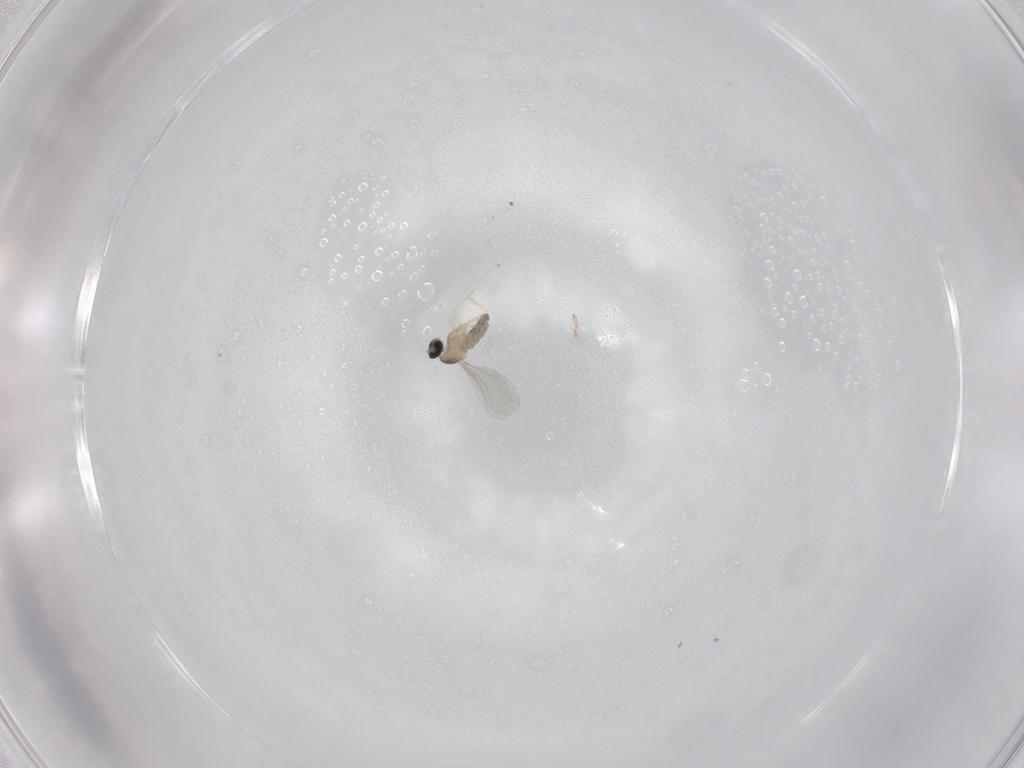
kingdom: Animalia
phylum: Arthropoda
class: Insecta
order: Diptera
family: Cecidomyiidae
